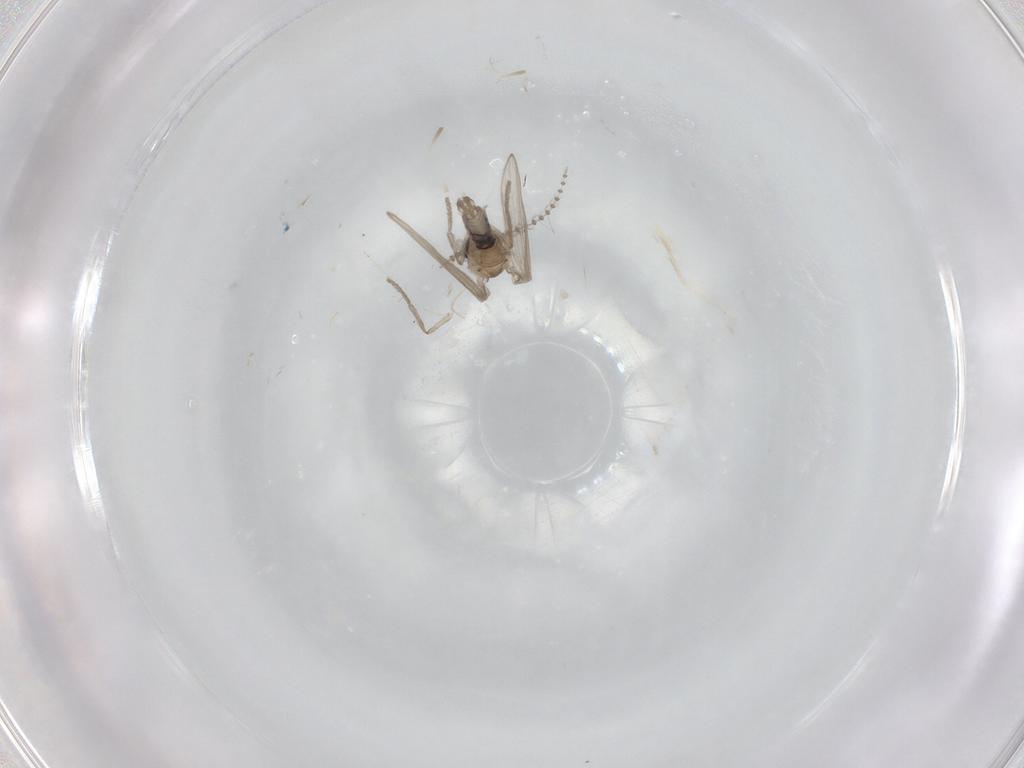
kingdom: Animalia
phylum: Arthropoda
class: Insecta
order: Diptera
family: Psychodidae
